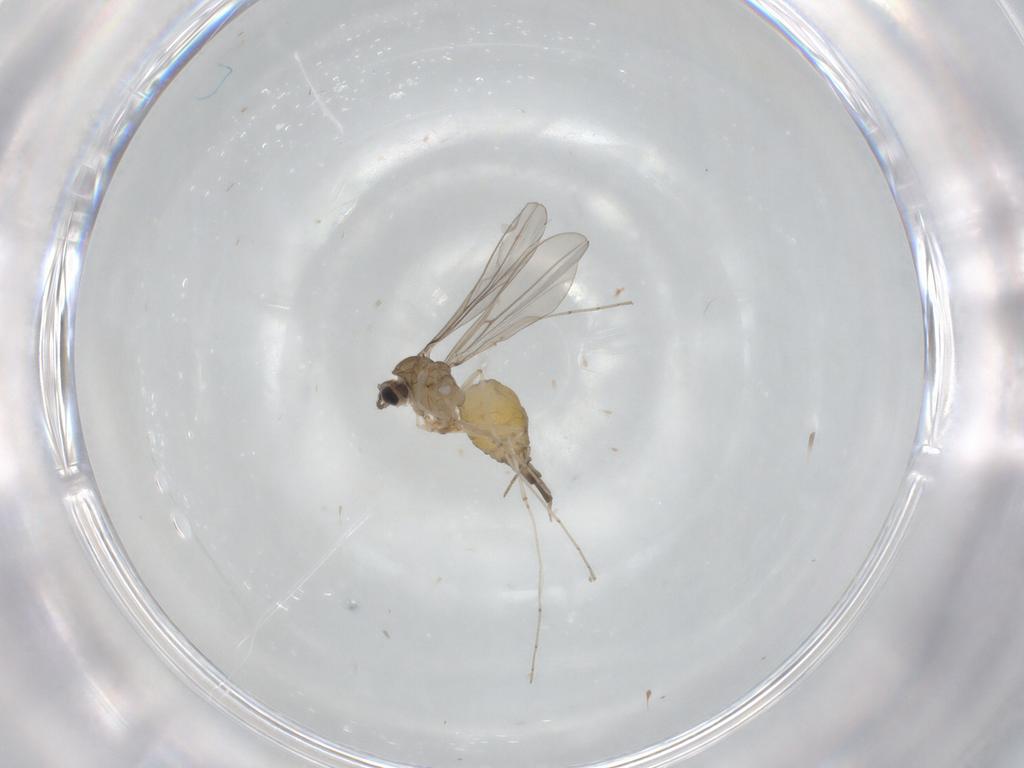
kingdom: Animalia
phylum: Arthropoda
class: Insecta
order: Diptera
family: Cecidomyiidae
